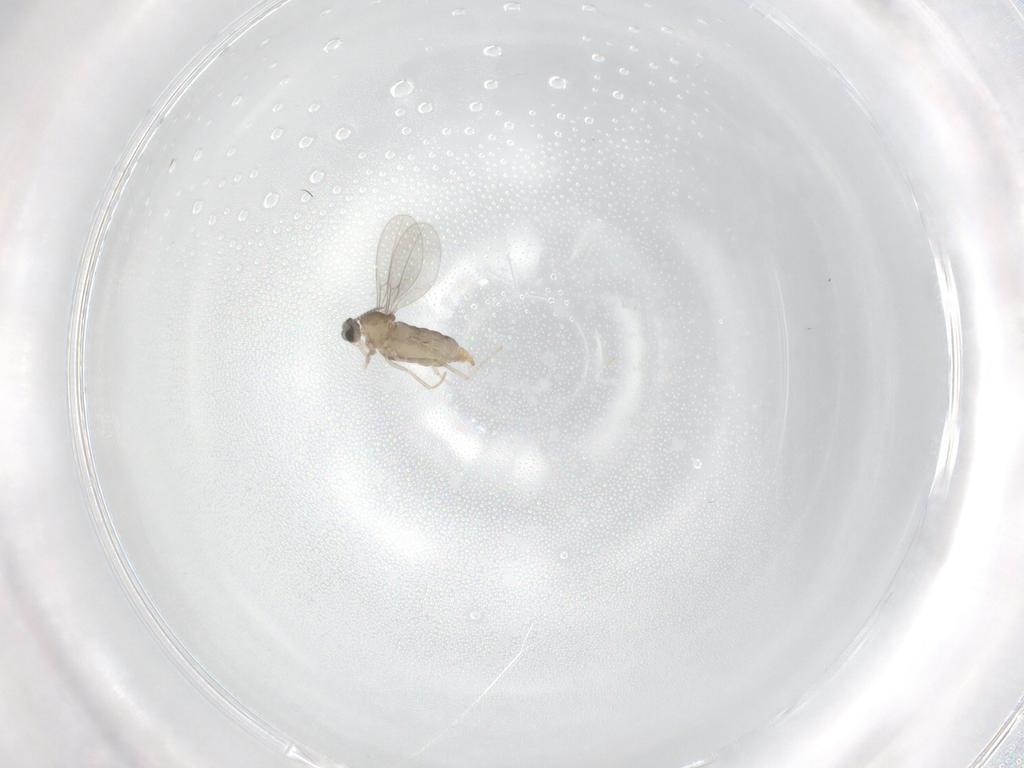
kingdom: Animalia
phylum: Arthropoda
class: Insecta
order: Diptera
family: Cecidomyiidae
